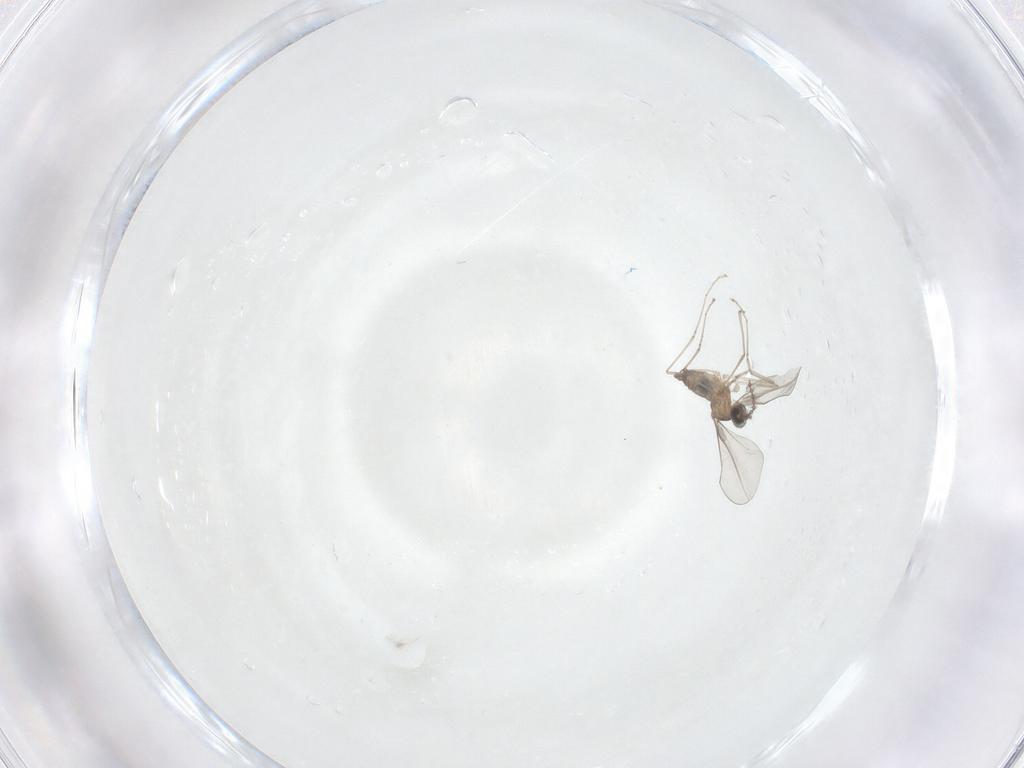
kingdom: Animalia
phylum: Arthropoda
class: Insecta
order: Diptera
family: Cecidomyiidae
